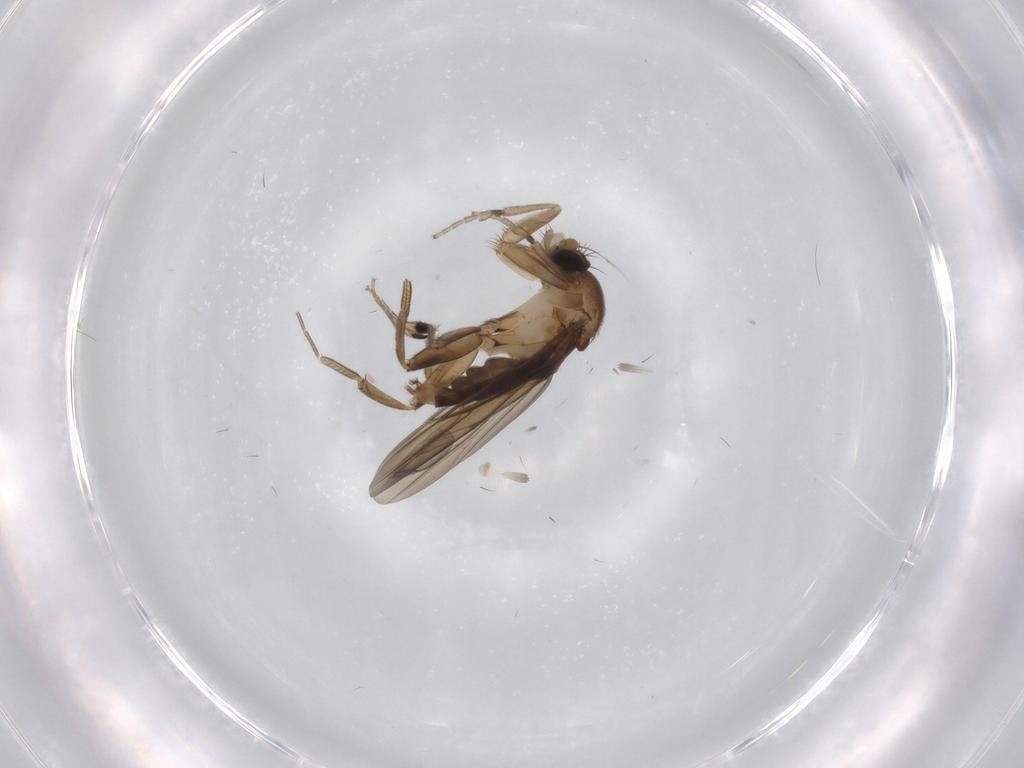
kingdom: Animalia
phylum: Arthropoda
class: Insecta
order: Diptera
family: Phoridae
